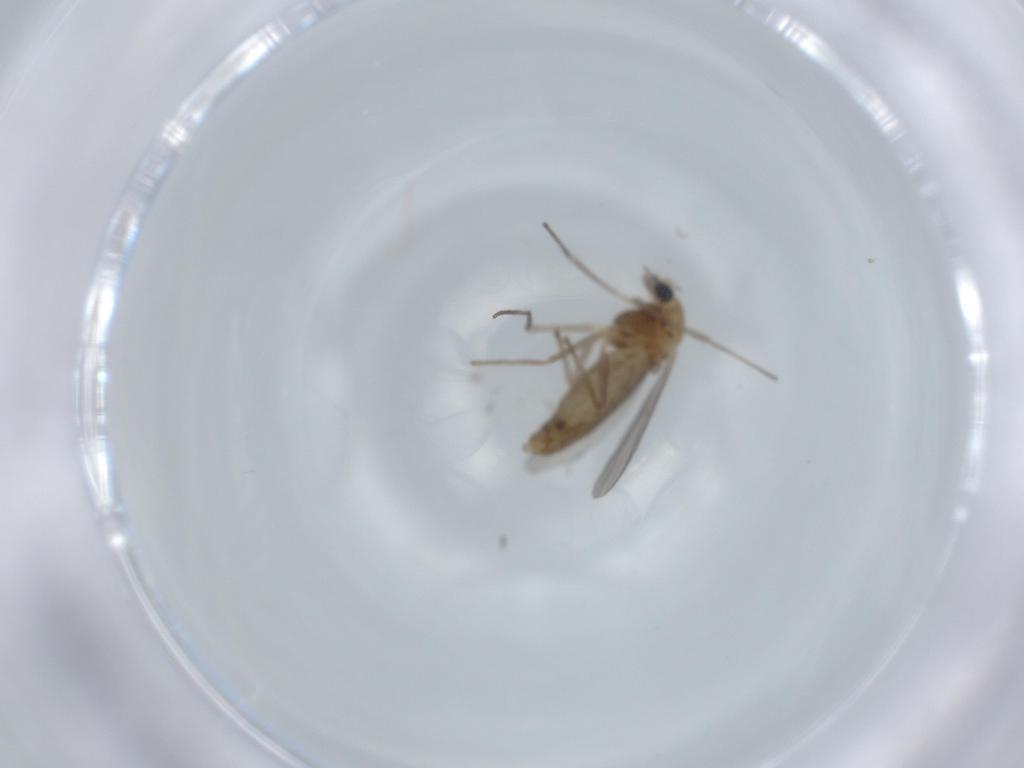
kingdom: Animalia
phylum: Arthropoda
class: Insecta
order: Diptera
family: Chironomidae
